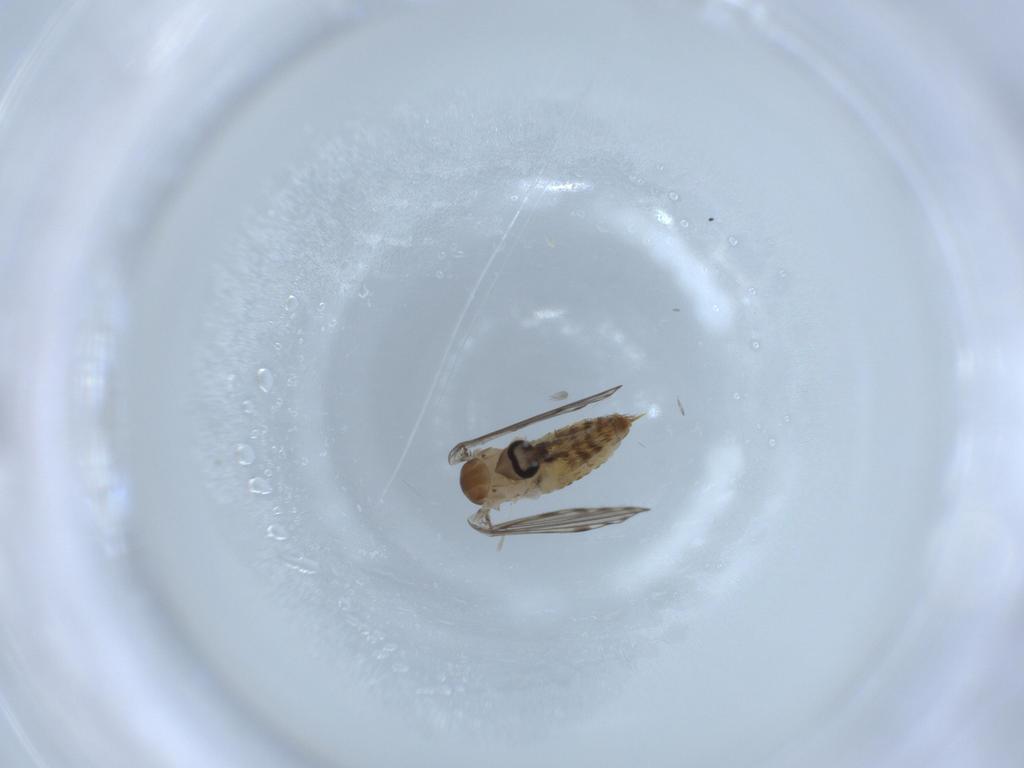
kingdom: Animalia
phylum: Arthropoda
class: Insecta
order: Diptera
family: Psychodidae
